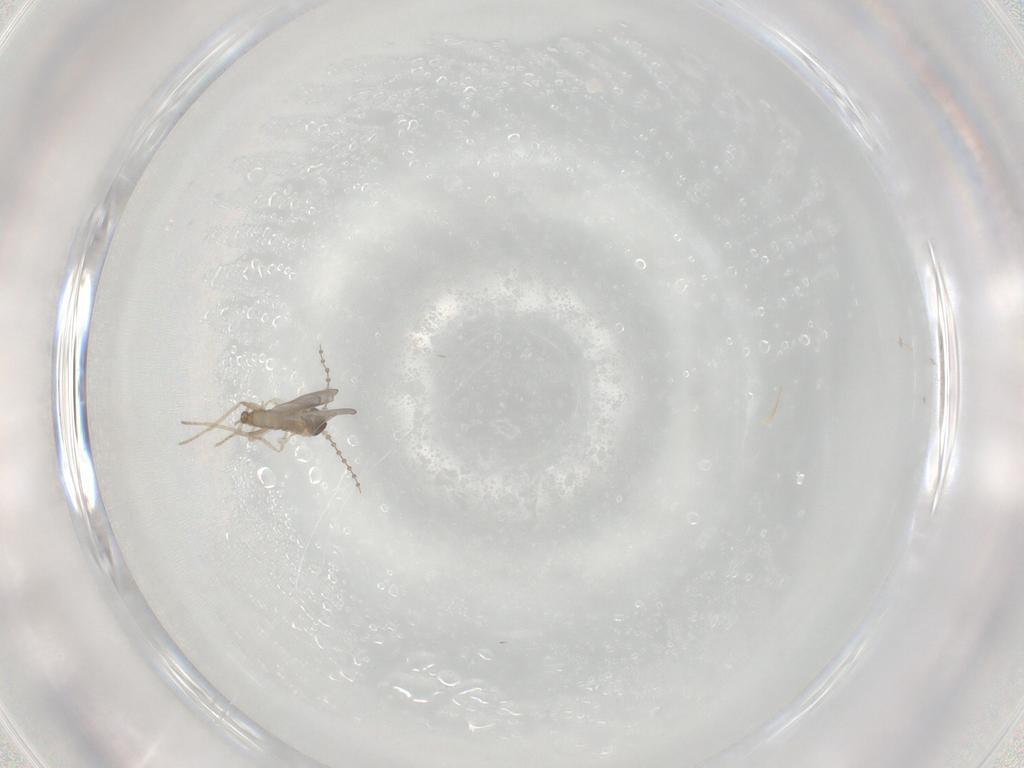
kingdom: Animalia
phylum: Arthropoda
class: Insecta
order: Diptera
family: Cecidomyiidae
